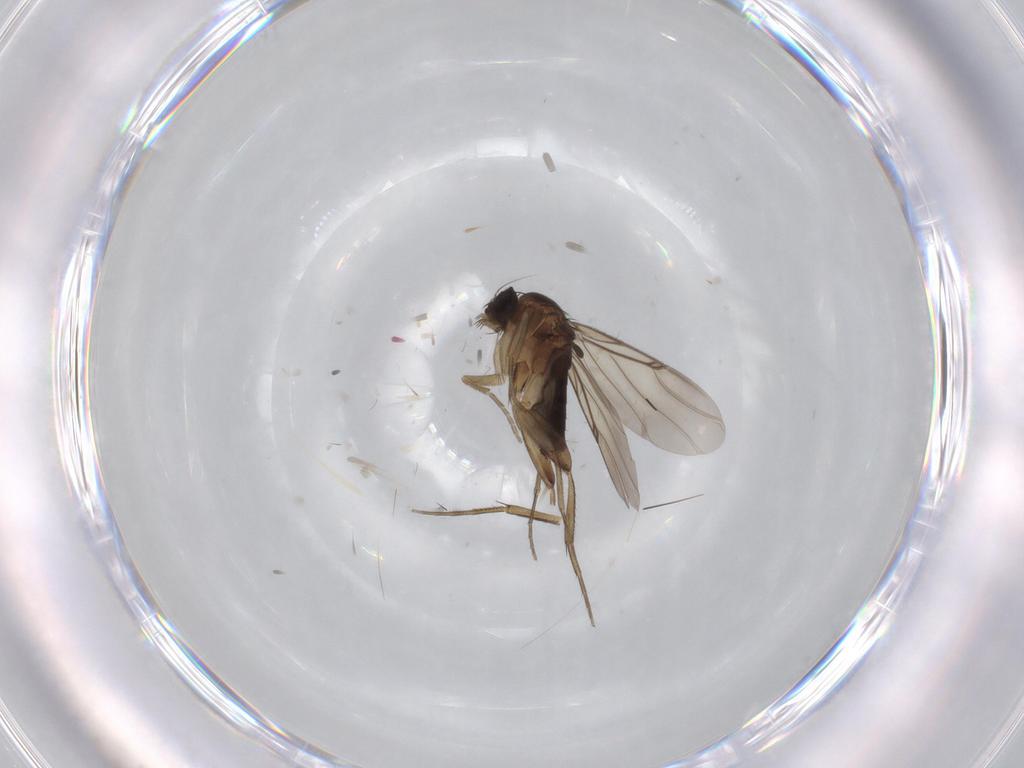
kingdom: Animalia
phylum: Arthropoda
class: Insecta
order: Diptera
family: Phoridae
